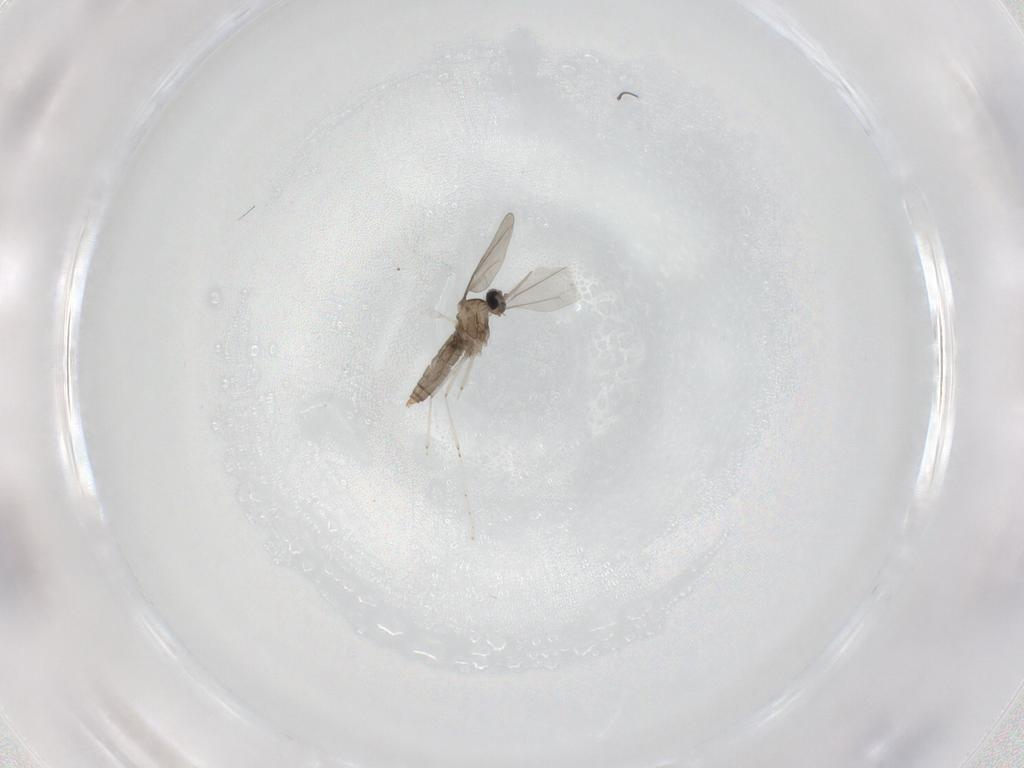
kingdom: Animalia
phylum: Arthropoda
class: Insecta
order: Diptera
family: Cecidomyiidae
